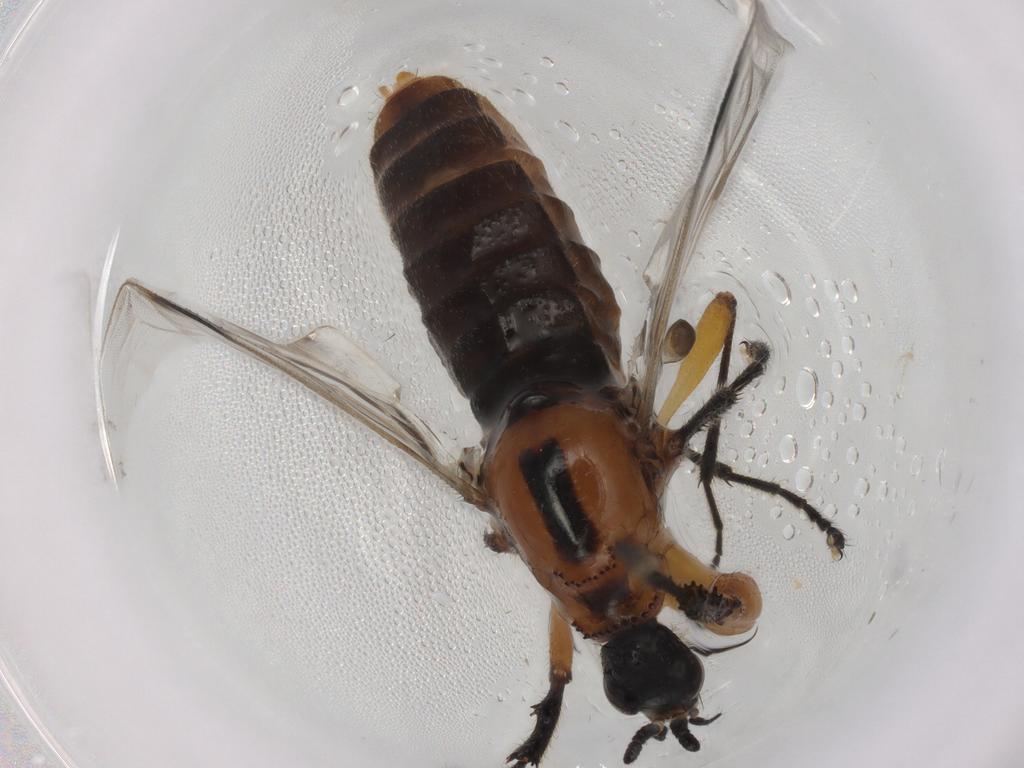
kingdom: Animalia
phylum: Arthropoda
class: Insecta
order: Diptera
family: Bibionidae
